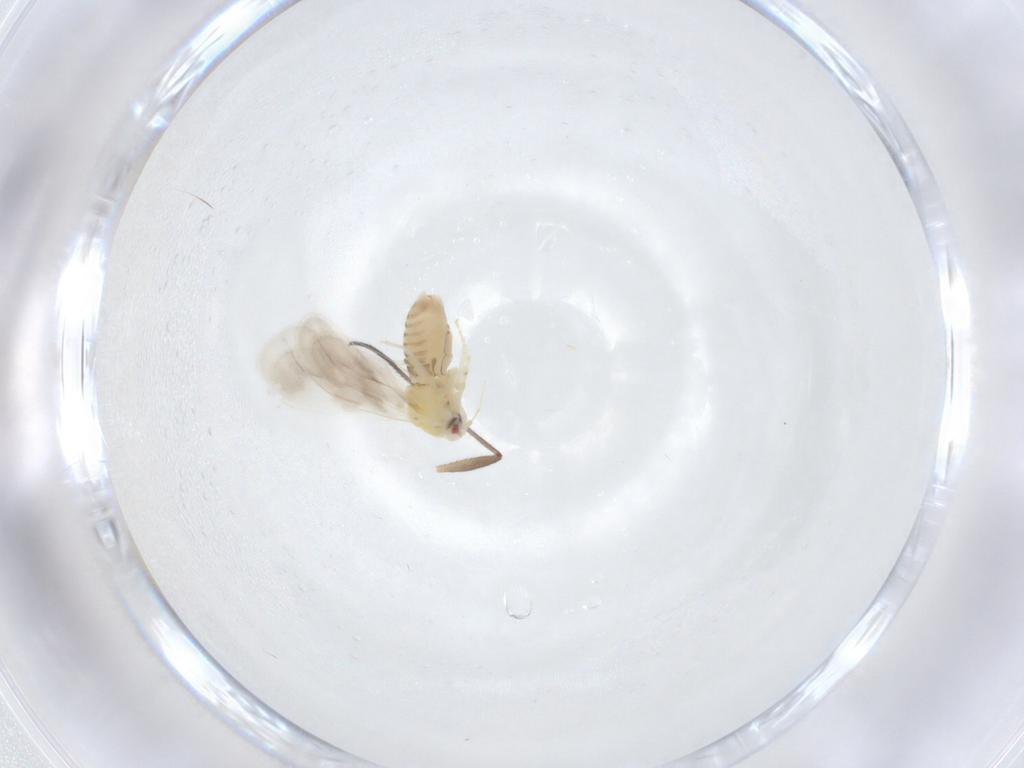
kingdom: Animalia
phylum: Arthropoda
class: Insecta
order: Hemiptera
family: Aleyrodidae
